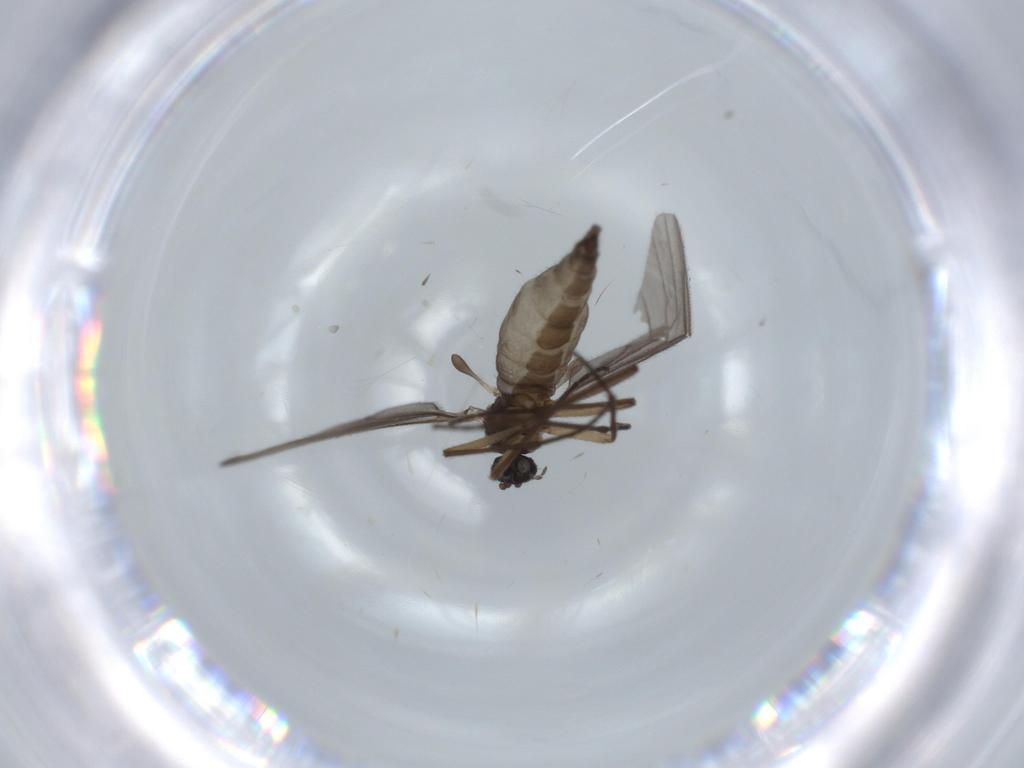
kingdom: Animalia
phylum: Arthropoda
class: Insecta
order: Diptera
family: Sciaridae
